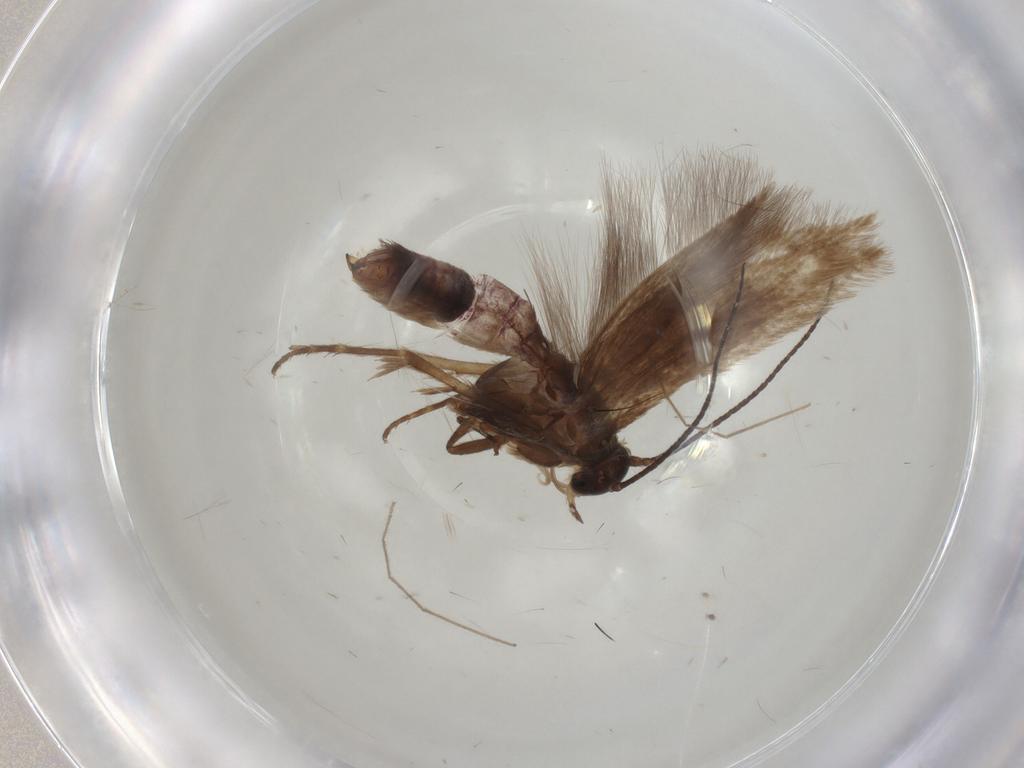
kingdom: Animalia
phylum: Arthropoda
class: Insecta
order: Lepidoptera
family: Scythrididae
